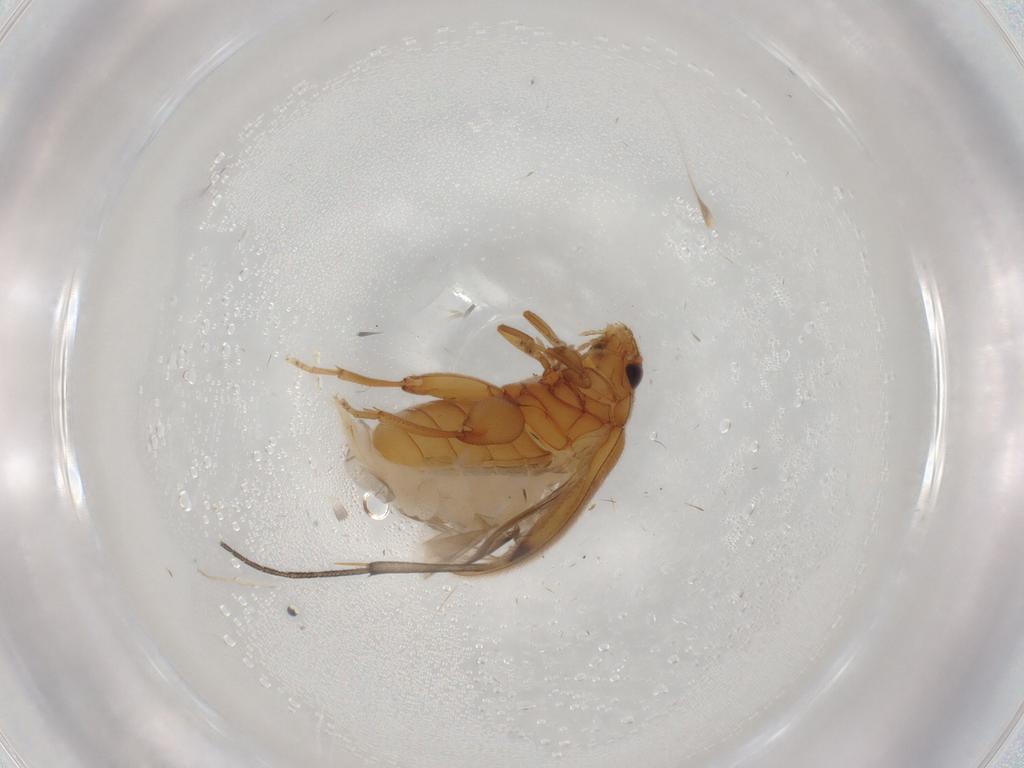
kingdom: Animalia
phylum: Arthropoda
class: Insecta
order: Coleoptera
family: Scirtidae
